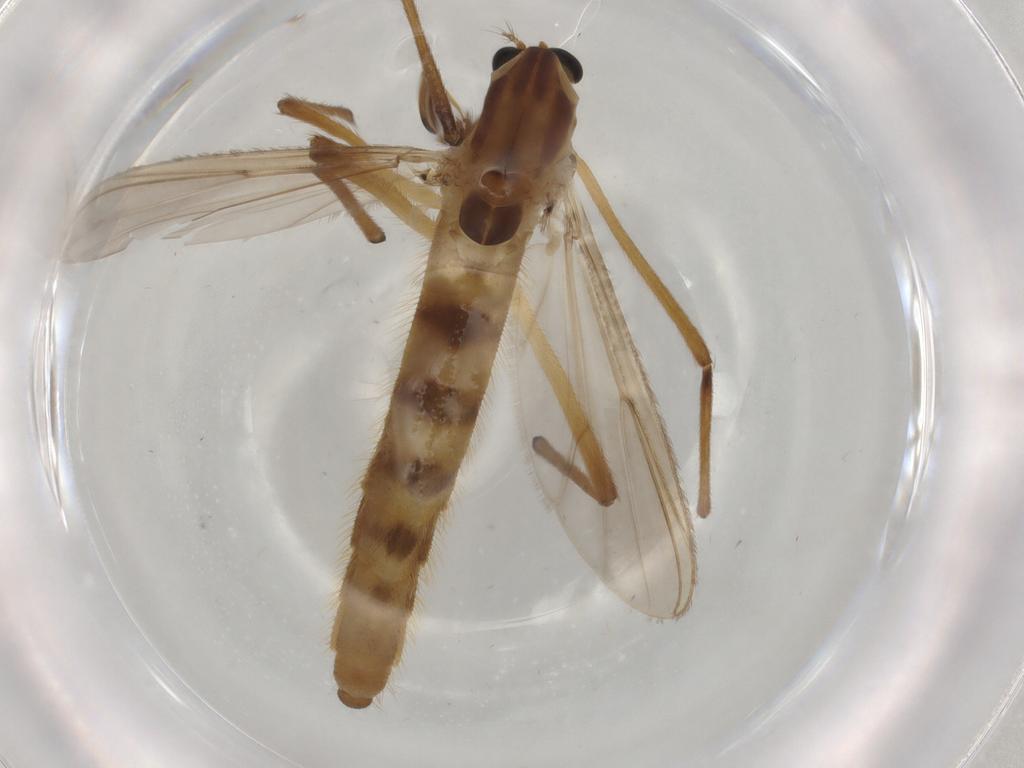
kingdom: Animalia
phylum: Arthropoda
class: Insecta
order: Diptera
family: Chironomidae
